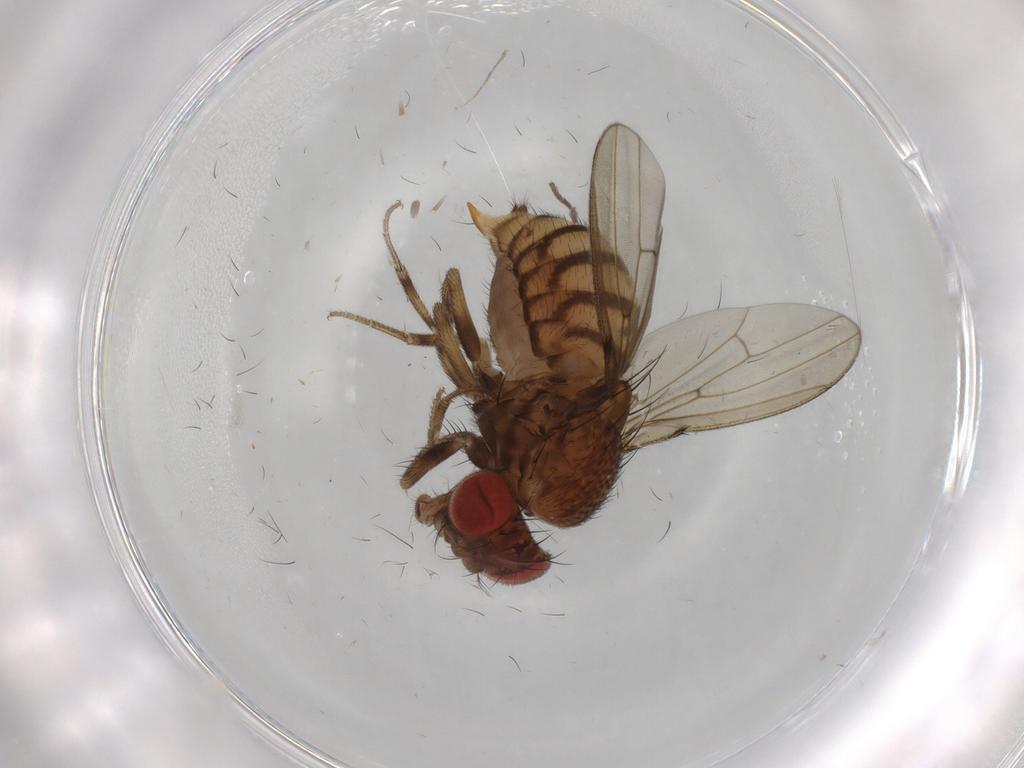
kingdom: Animalia
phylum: Arthropoda
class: Insecta
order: Diptera
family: Drosophilidae
